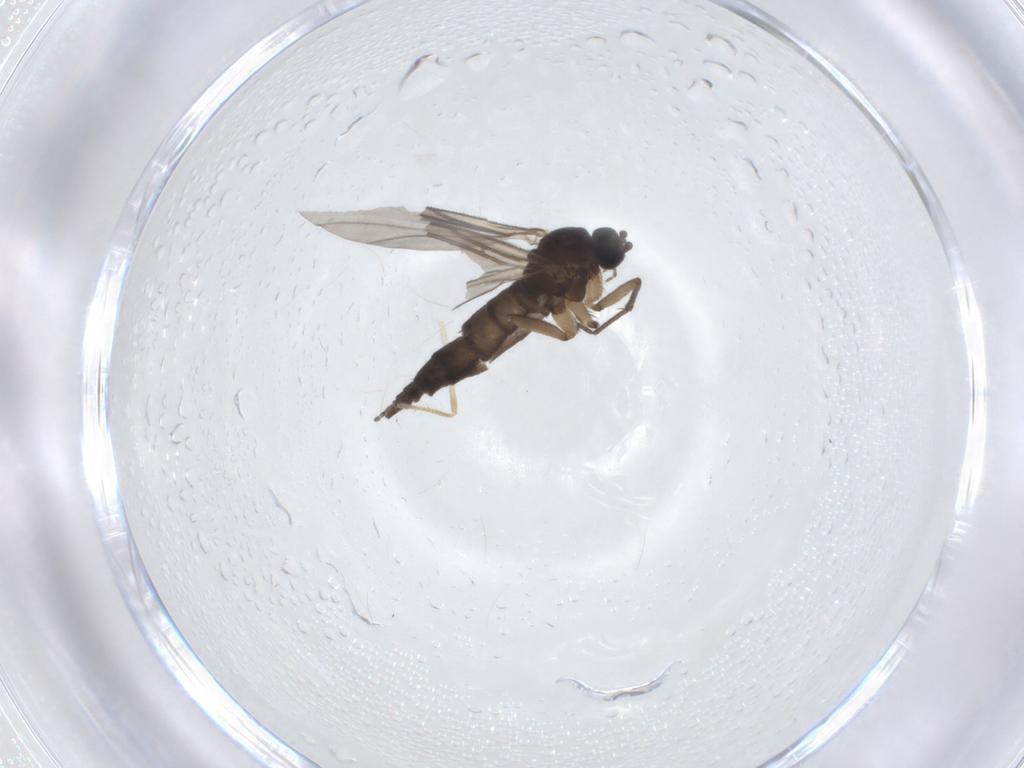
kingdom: Animalia
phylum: Arthropoda
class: Insecta
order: Diptera
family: Sciaridae
